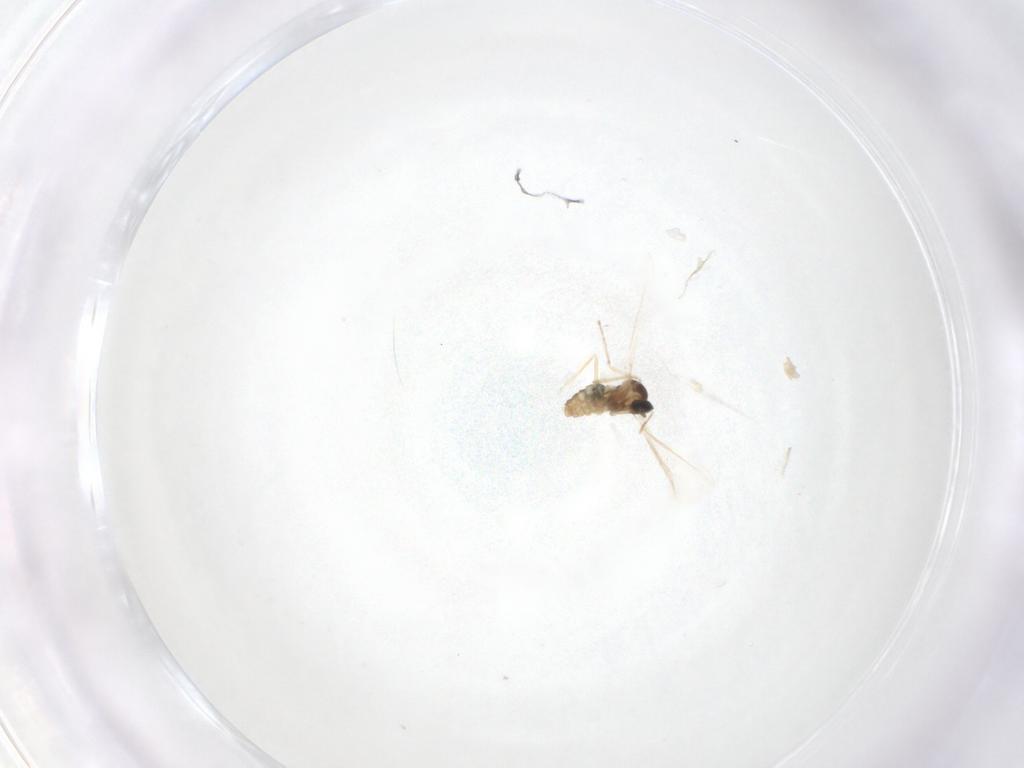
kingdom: Animalia
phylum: Arthropoda
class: Insecta
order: Diptera
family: Cecidomyiidae
